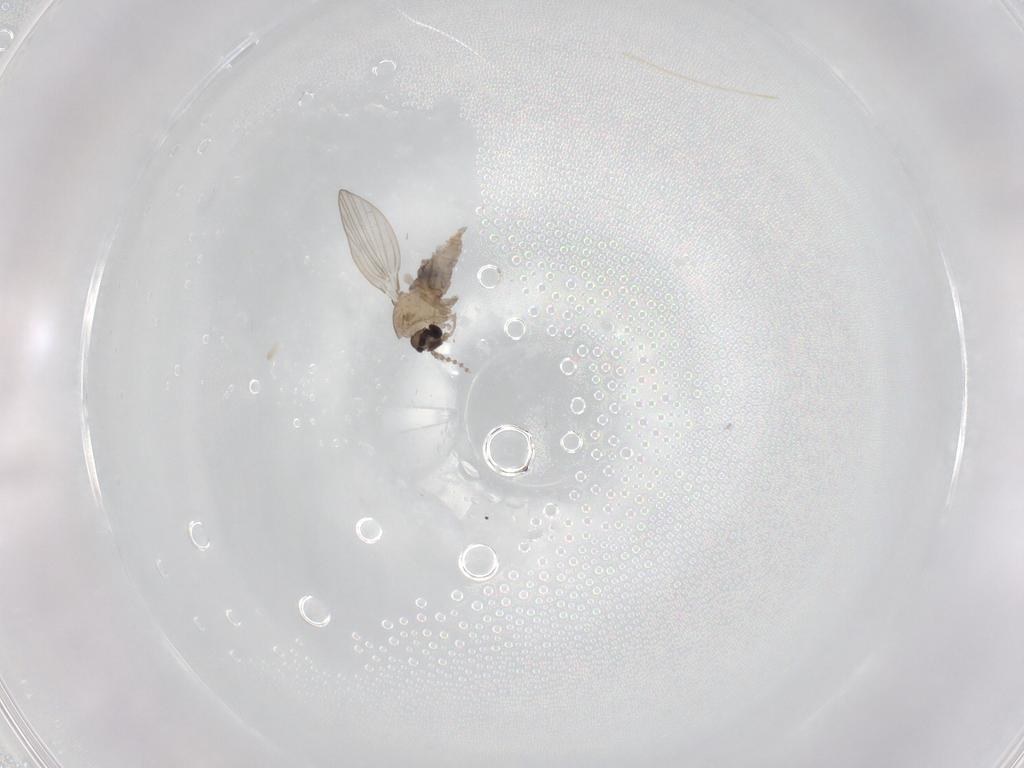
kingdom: Animalia
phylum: Arthropoda
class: Insecta
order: Diptera
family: Psychodidae
